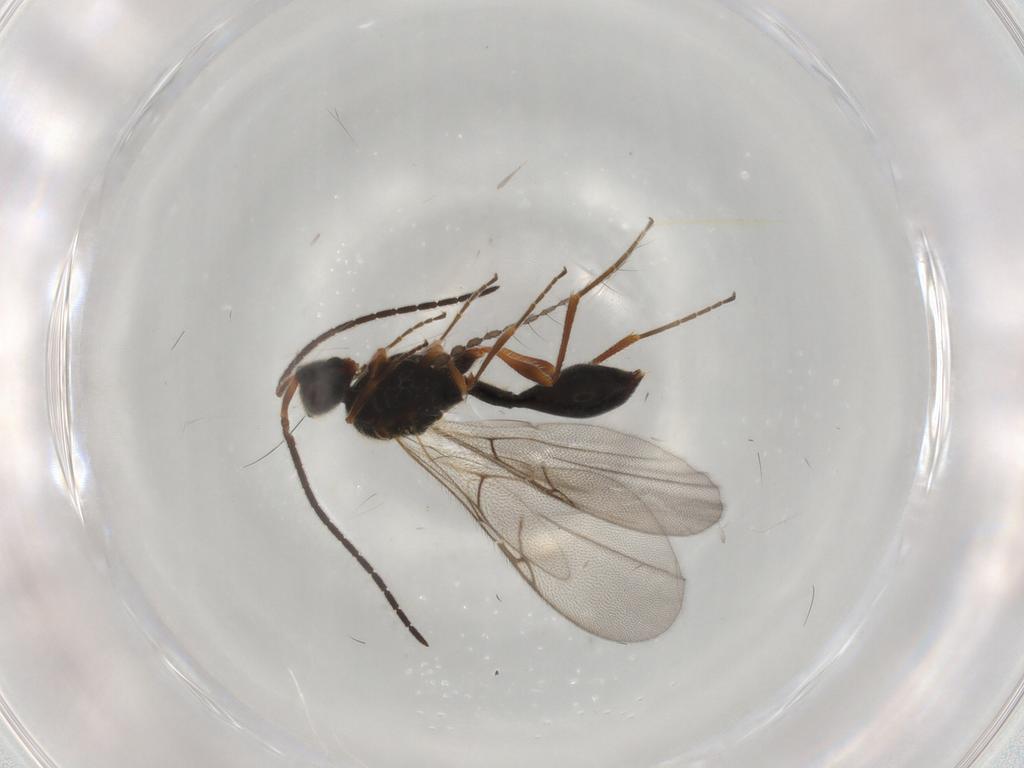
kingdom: Animalia
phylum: Arthropoda
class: Insecta
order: Hymenoptera
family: Diapriidae
